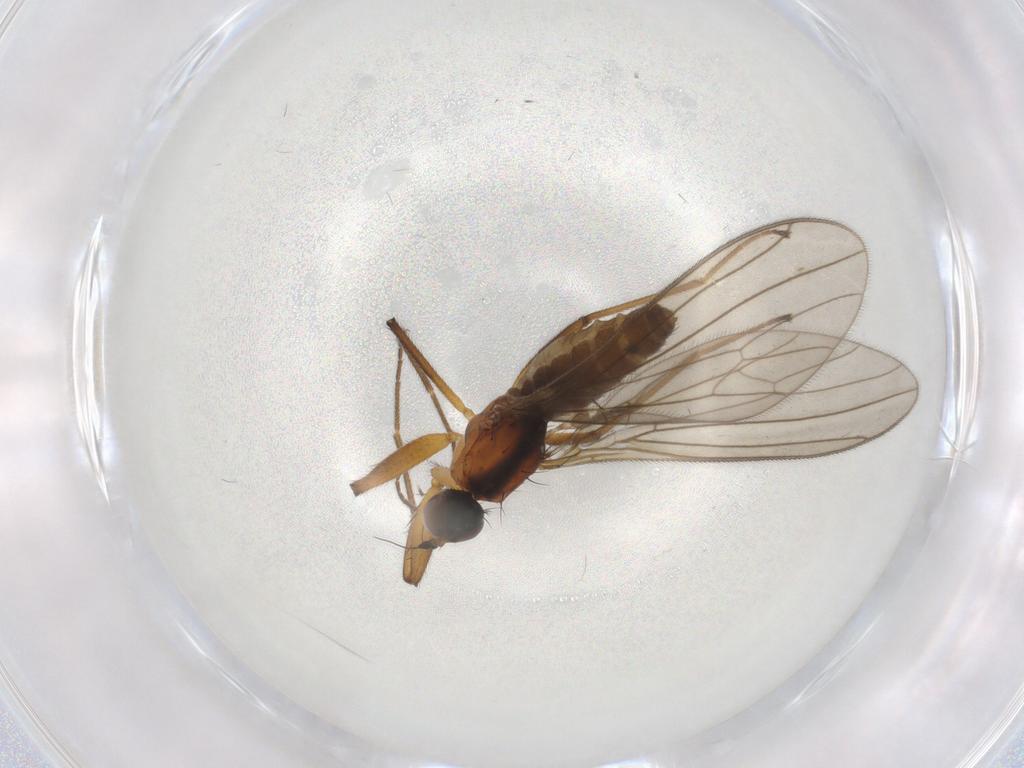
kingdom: Animalia
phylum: Arthropoda
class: Insecta
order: Diptera
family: Empididae
